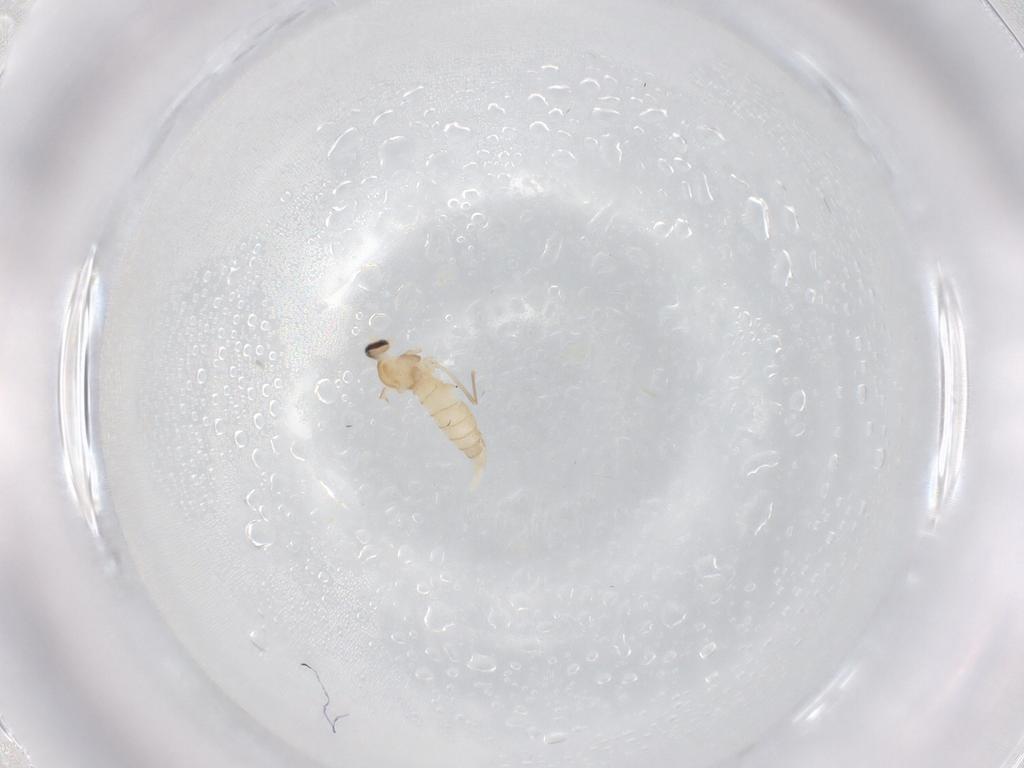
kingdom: Animalia
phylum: Arthropoda
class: Insecta
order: Diptera
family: Cecidomyiidae
